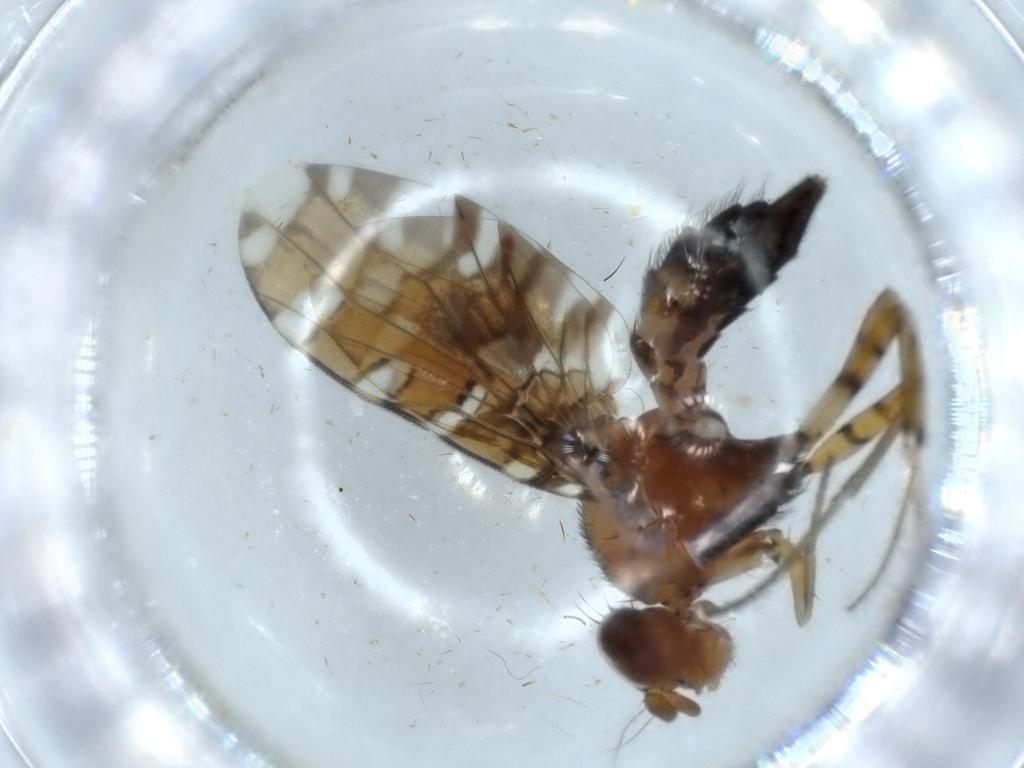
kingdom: Animalia
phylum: Arthropoda
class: Insecta
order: Diptera
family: Cecidomyiidae
